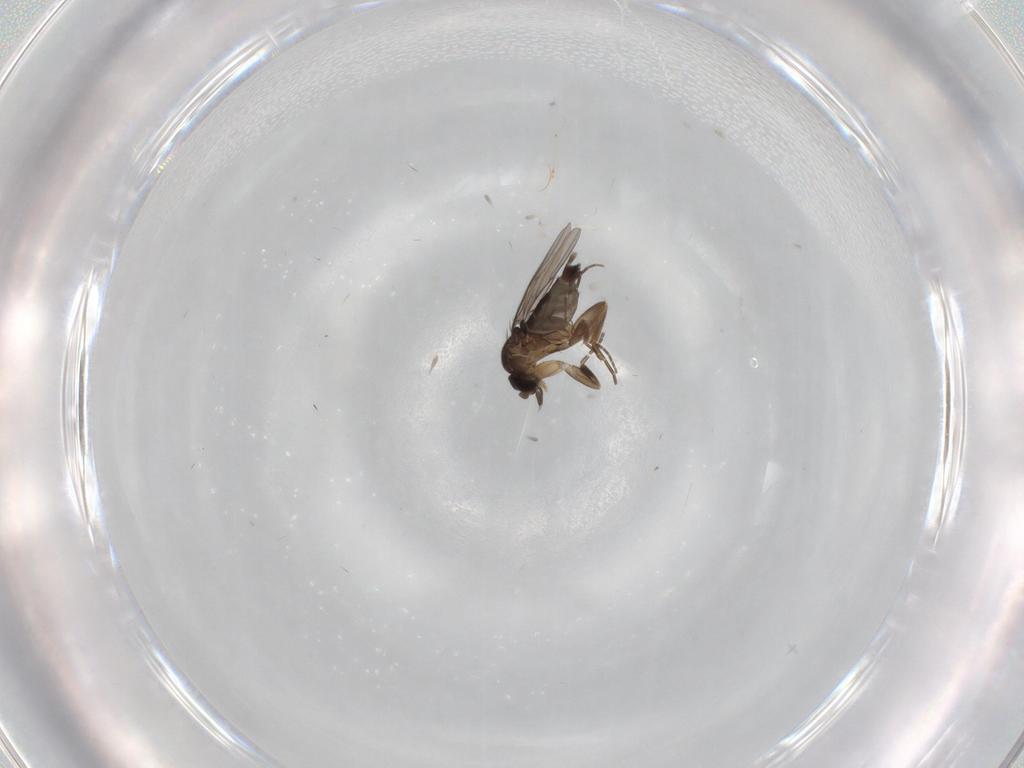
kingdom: Animalia
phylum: Arthropoda
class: Insecta
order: Diptera
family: Phoridae
